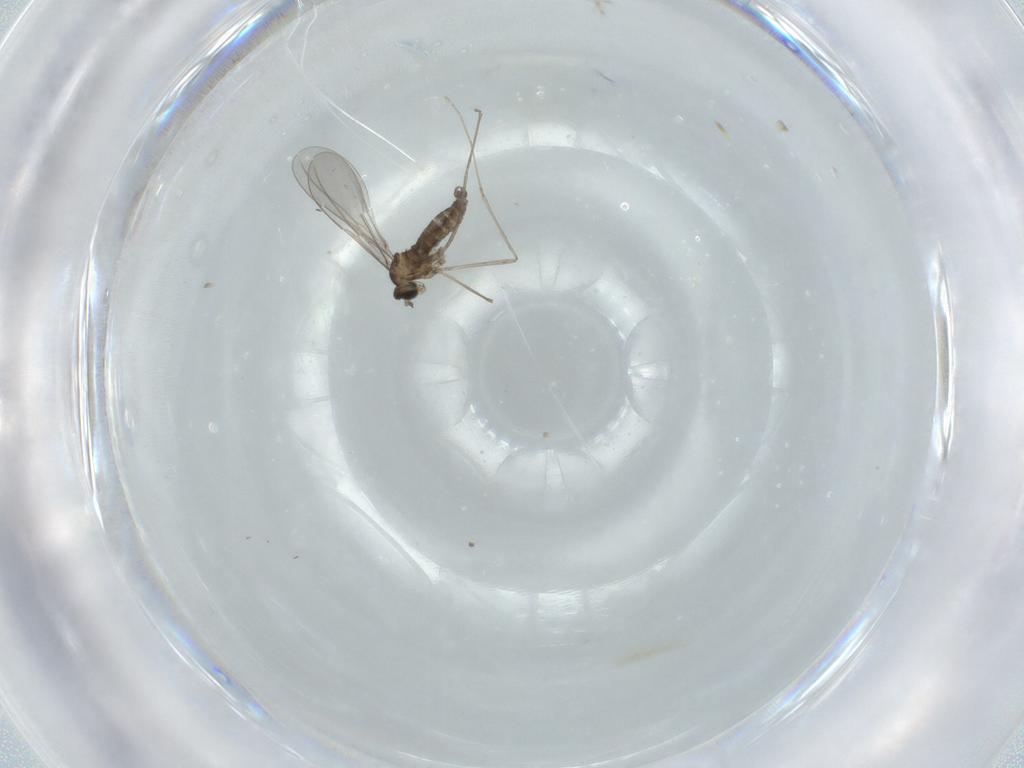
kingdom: Animalia
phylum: Arthropoda
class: Insecta
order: Diptera
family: Cecidomyiidae
